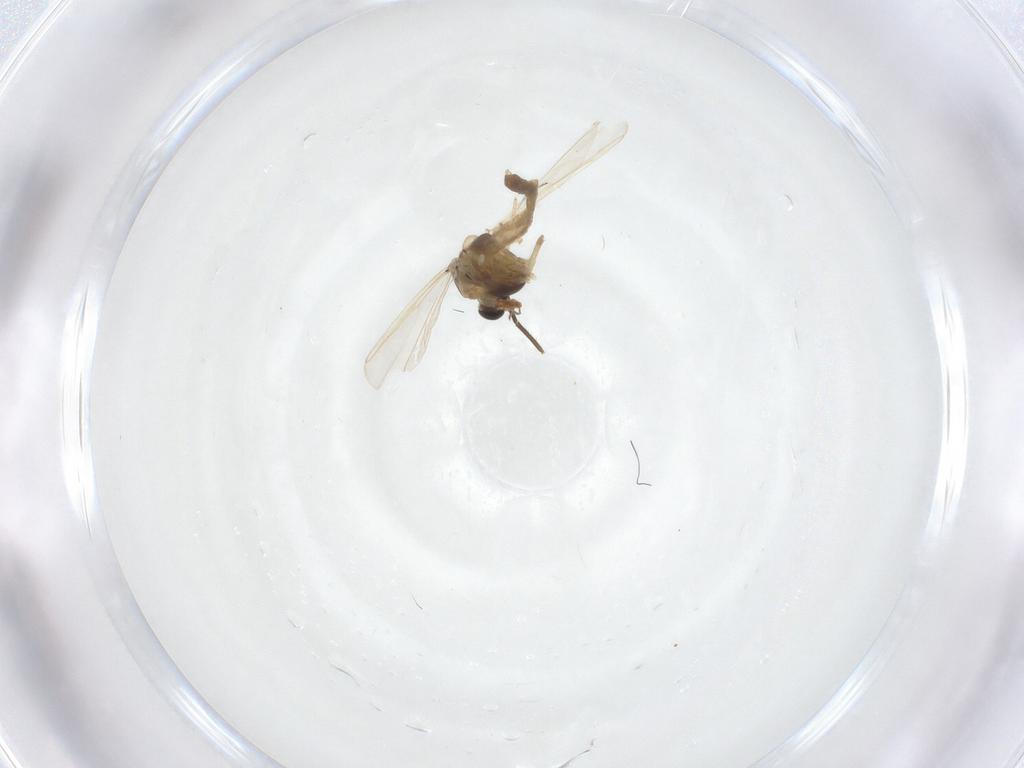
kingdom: Animalia
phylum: Arthropoda
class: Insecta
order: Diptera
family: Chironomidae
